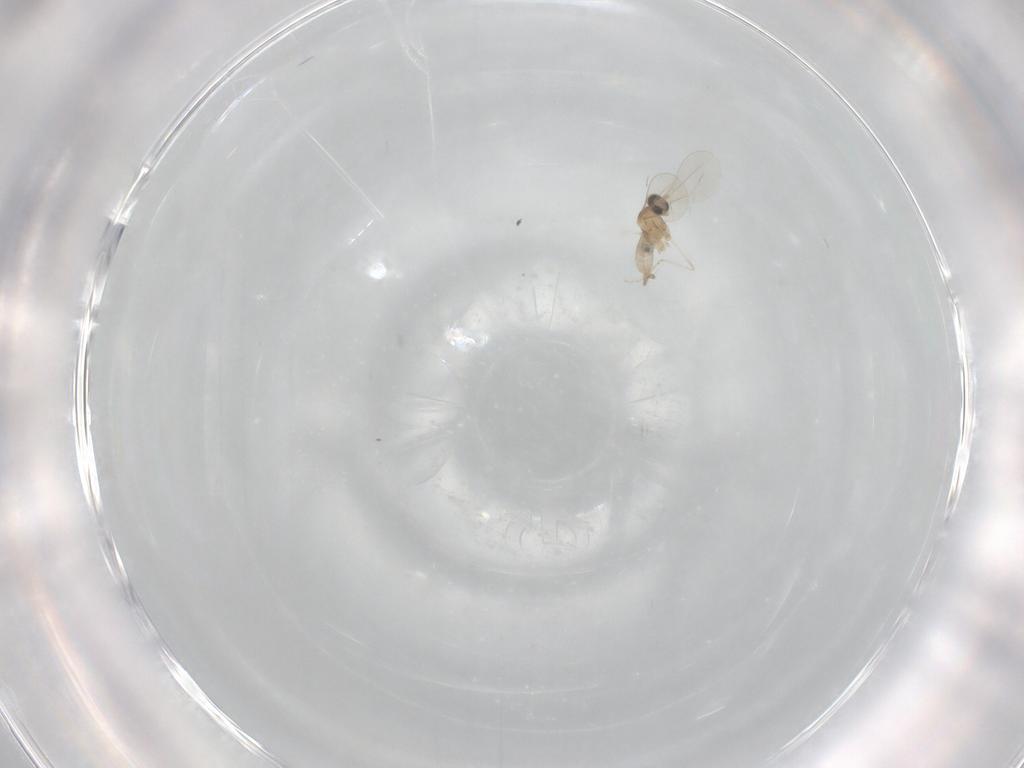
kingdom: Animalia
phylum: Arthropoda
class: Insecta
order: Diptera
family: Cecidomyiidae
